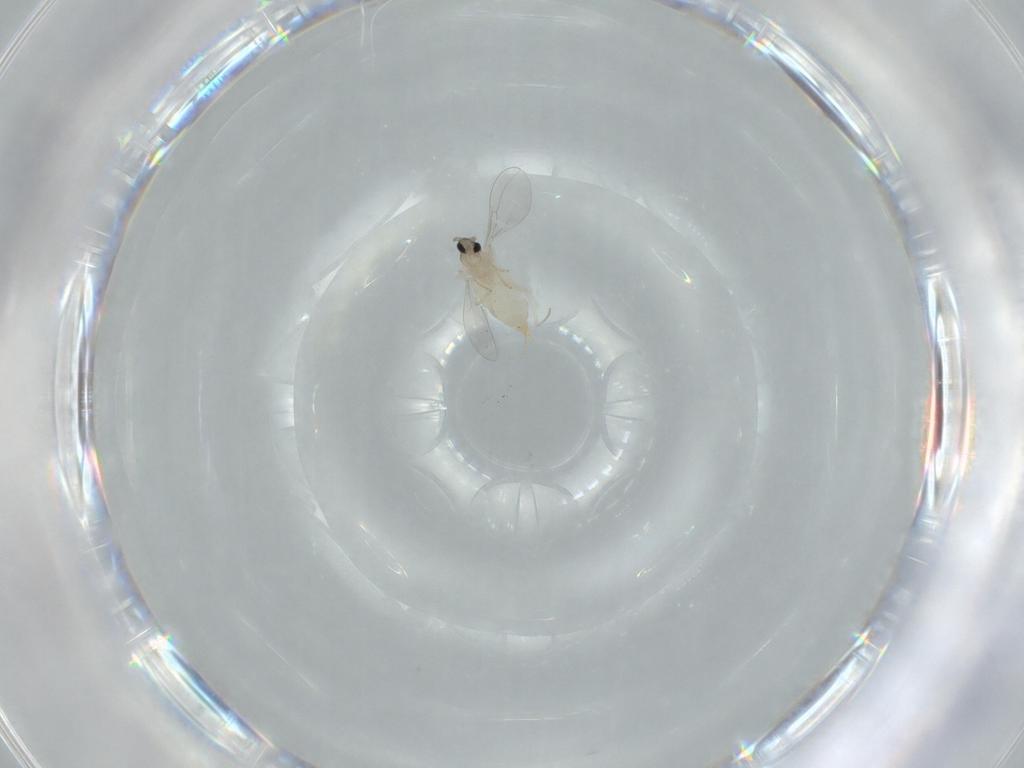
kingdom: Animalia
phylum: Arthropoda
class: Insecta
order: Diptera
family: Cecidomyiidae
